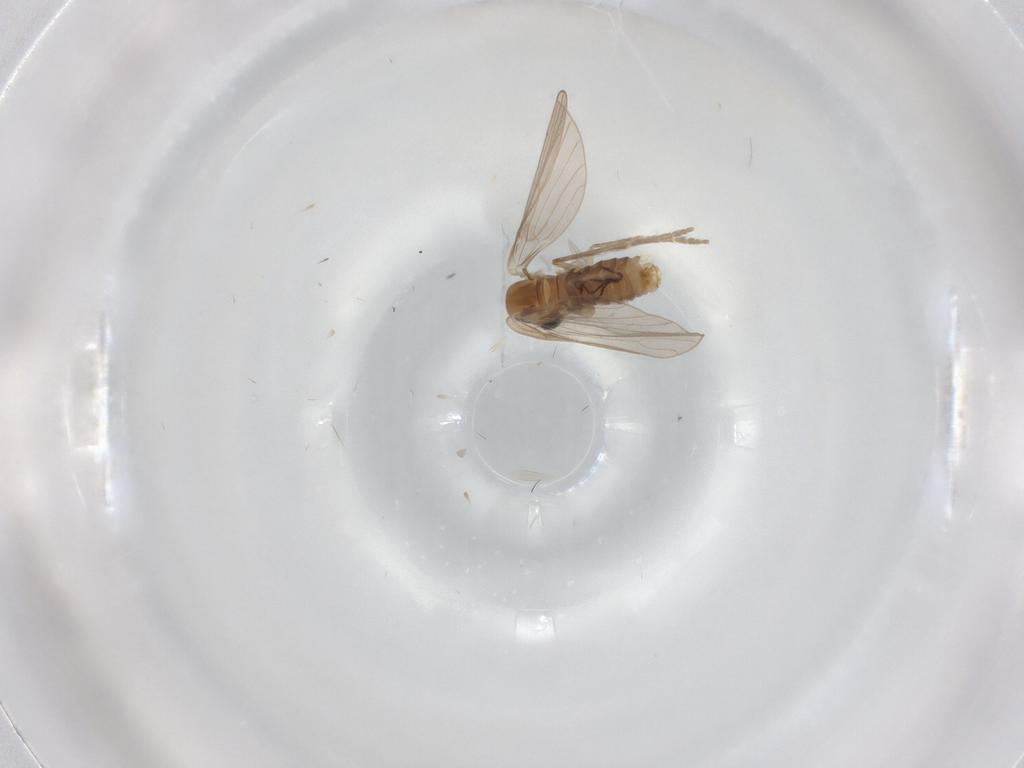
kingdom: Animalia
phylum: Arthropoda
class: Insecta
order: Diptera
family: Psychodidae
